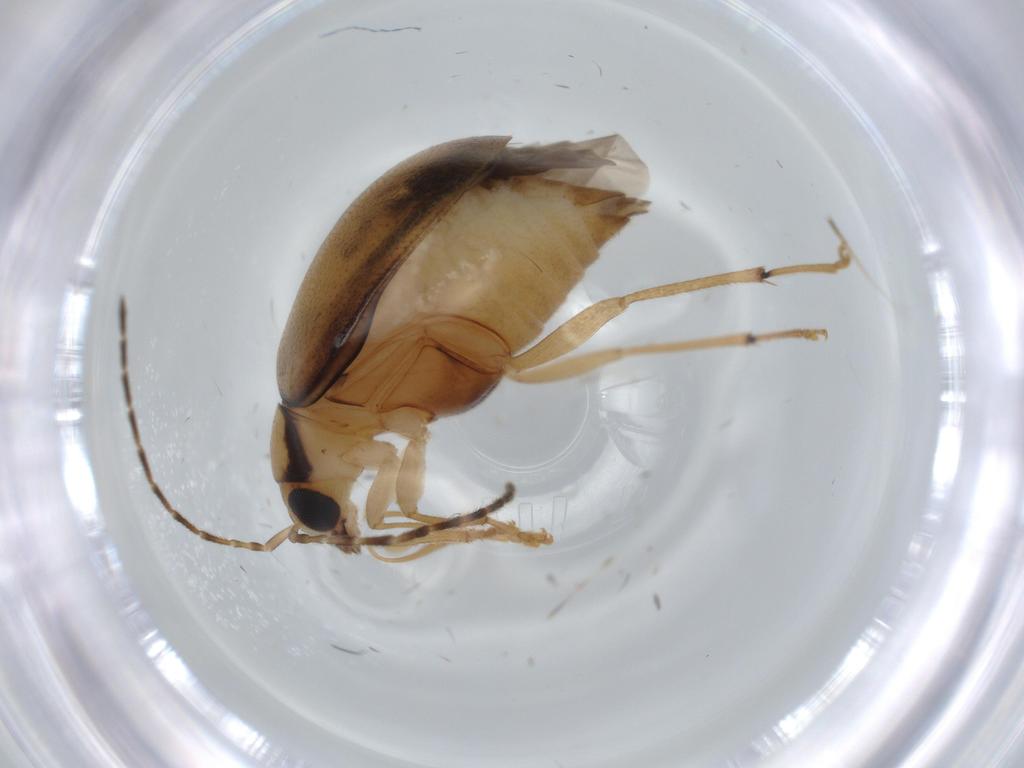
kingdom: Animalia
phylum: Arthropoda
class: Insecta
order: Coleoptera
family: Chrysomelidae
